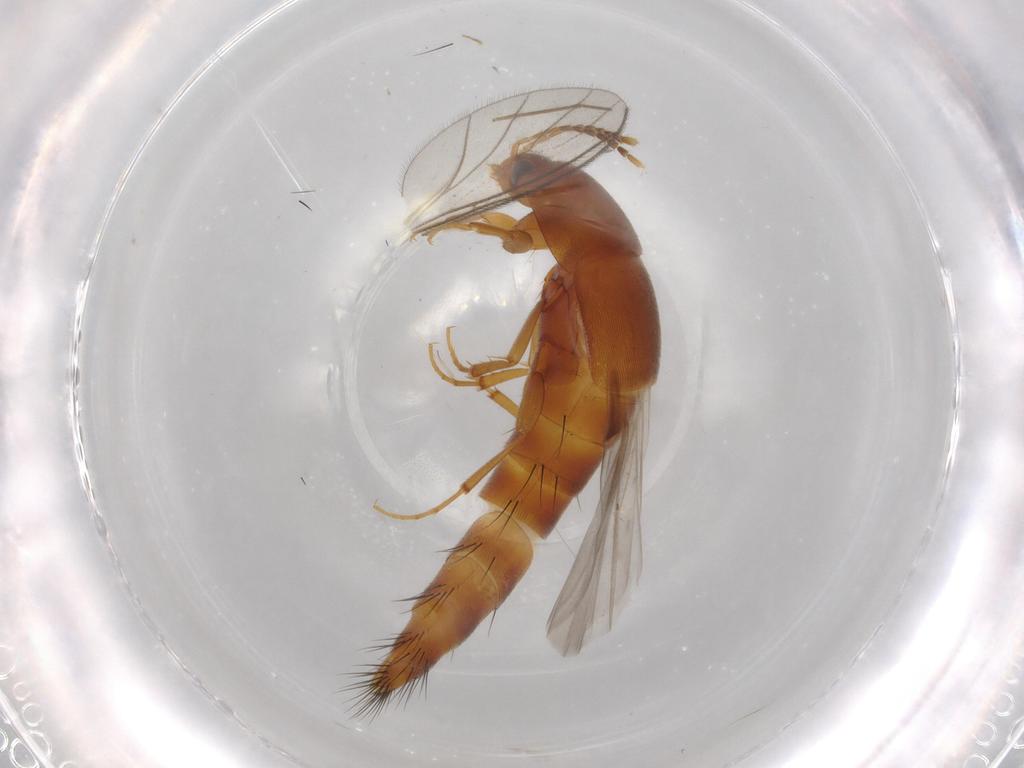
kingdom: Animalia
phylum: Arthropoda
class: Insecta
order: Coleoptera
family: Staphylinidae
